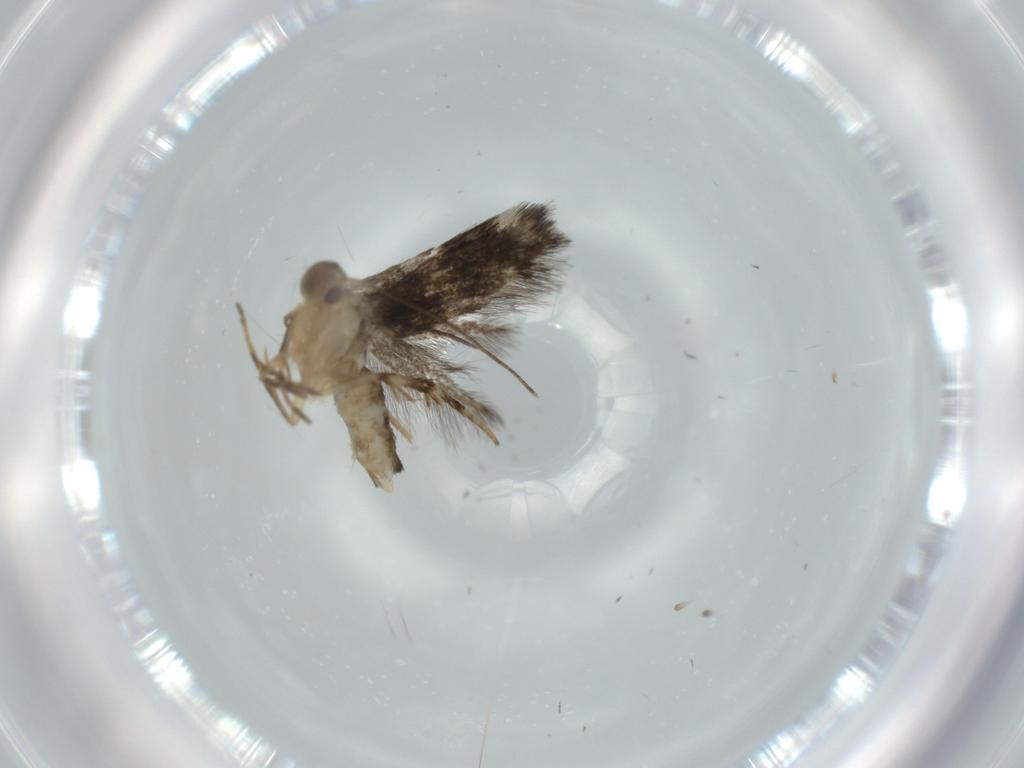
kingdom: Animalia
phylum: Arthropoda
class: Insecta
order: Lepidoptera
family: Cosmopterigidae
